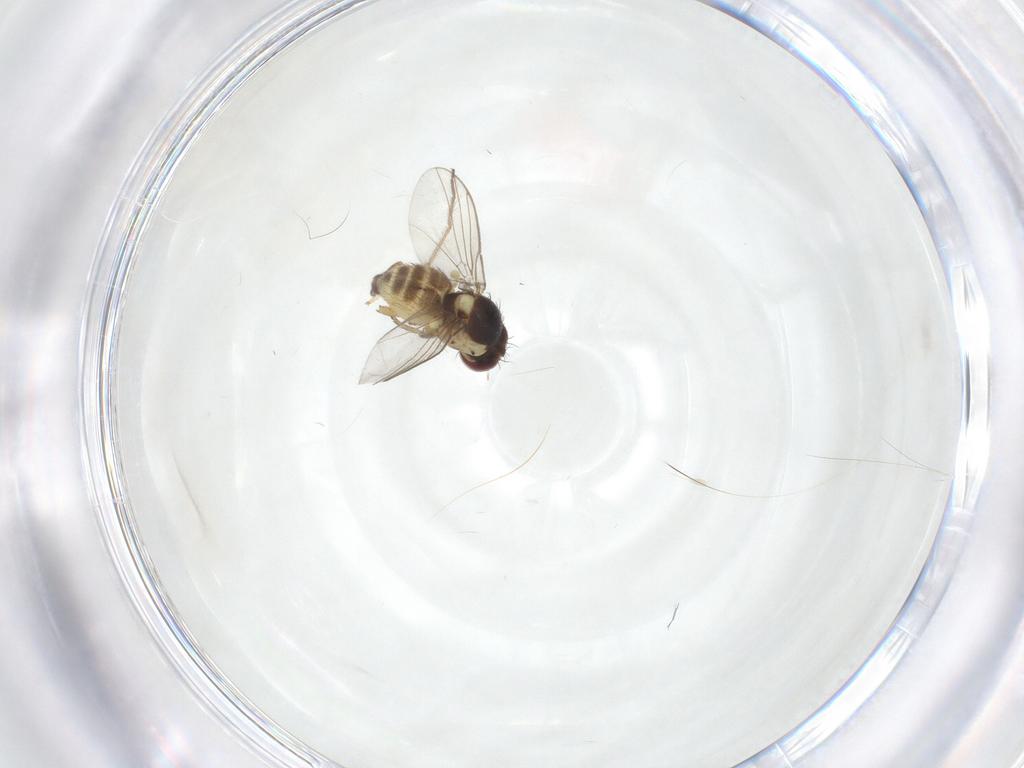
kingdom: Animalia
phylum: Arthropoda
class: Insecta
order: Diptera
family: Agromyzidae
